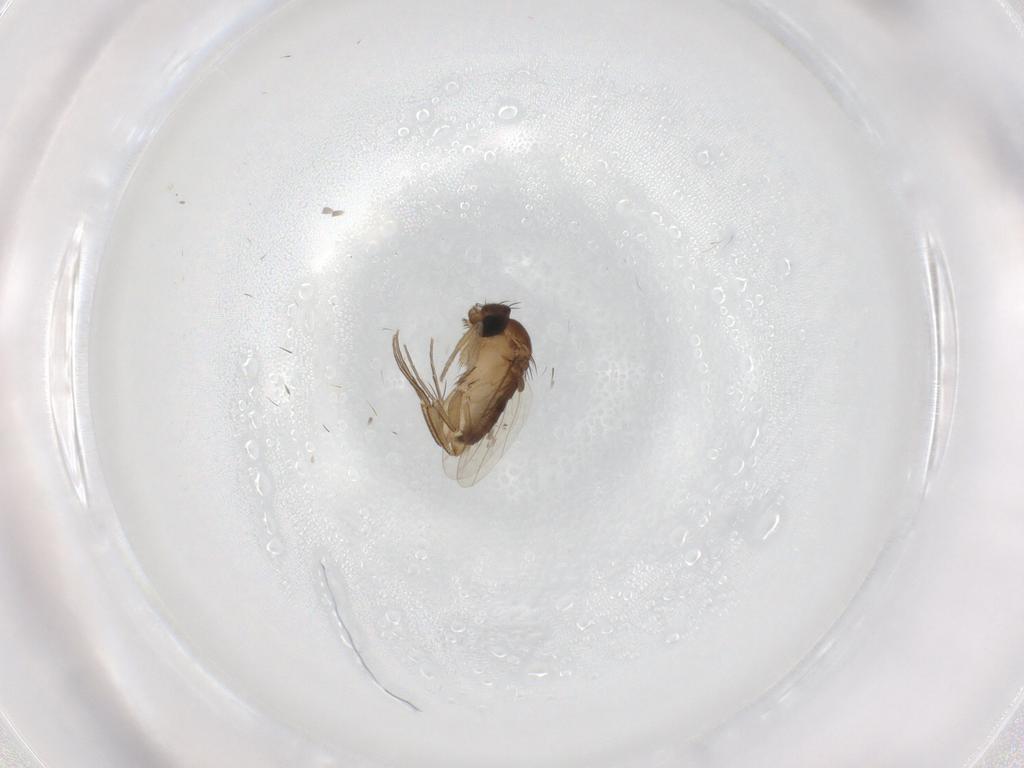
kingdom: Animalia
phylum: Arthropoda
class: Insecta
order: Diptera
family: Phoridae
